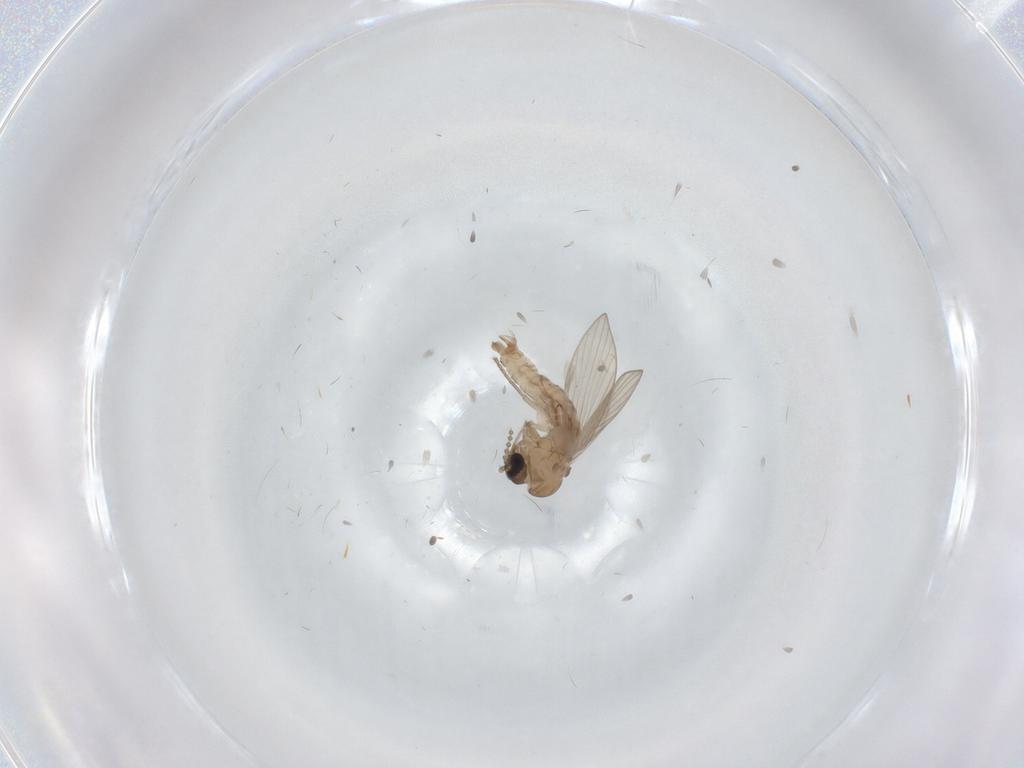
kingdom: Animalia
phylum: Arthropoda
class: Insecta
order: Diptera
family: Psychodidae
